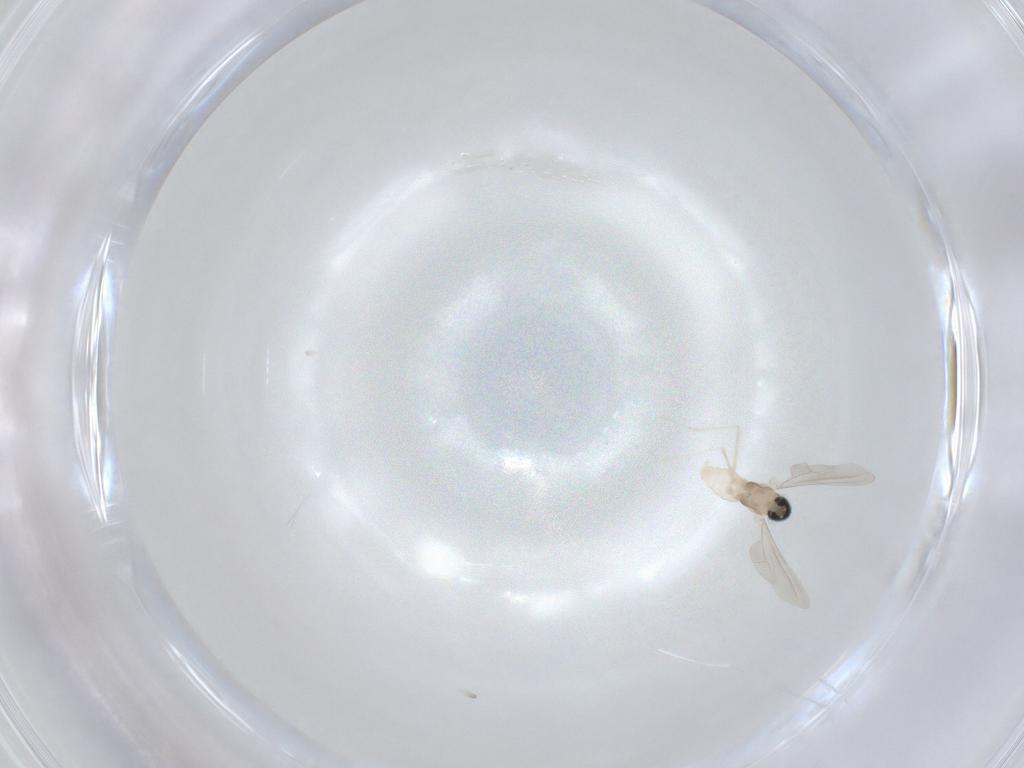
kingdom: Animalia
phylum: Arthropoda
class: Insecta
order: Diptera
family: Cecidomyiidae
